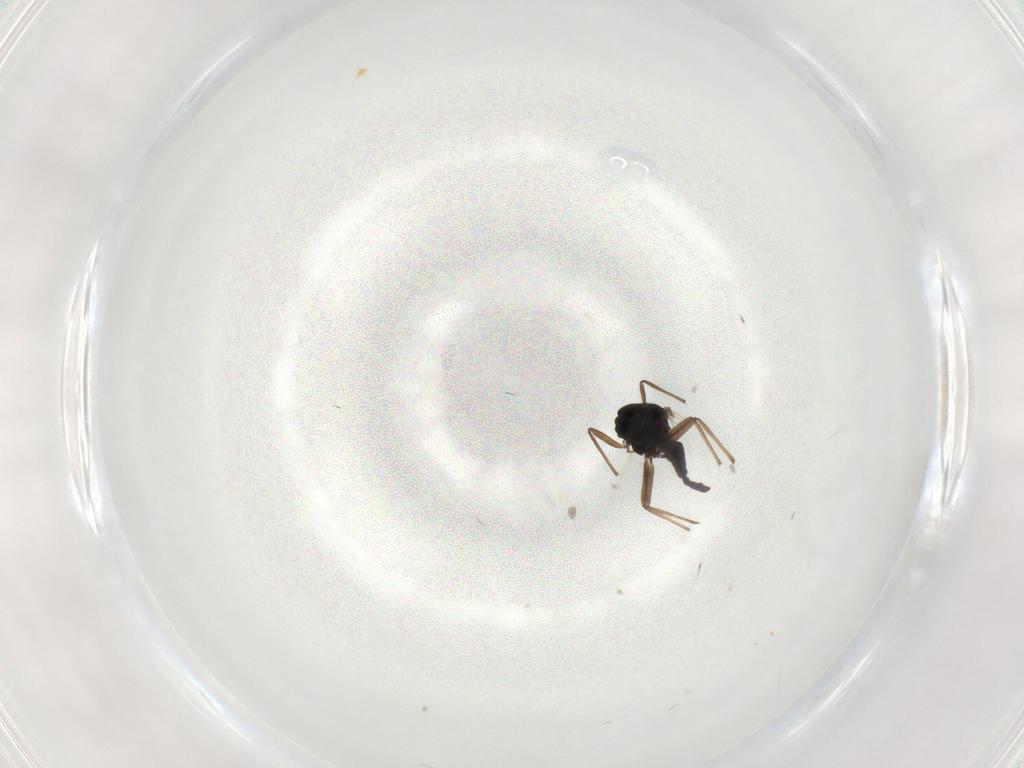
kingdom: Animalia
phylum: Arthropoda
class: Insecta
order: Diptera
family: Chironomidae
